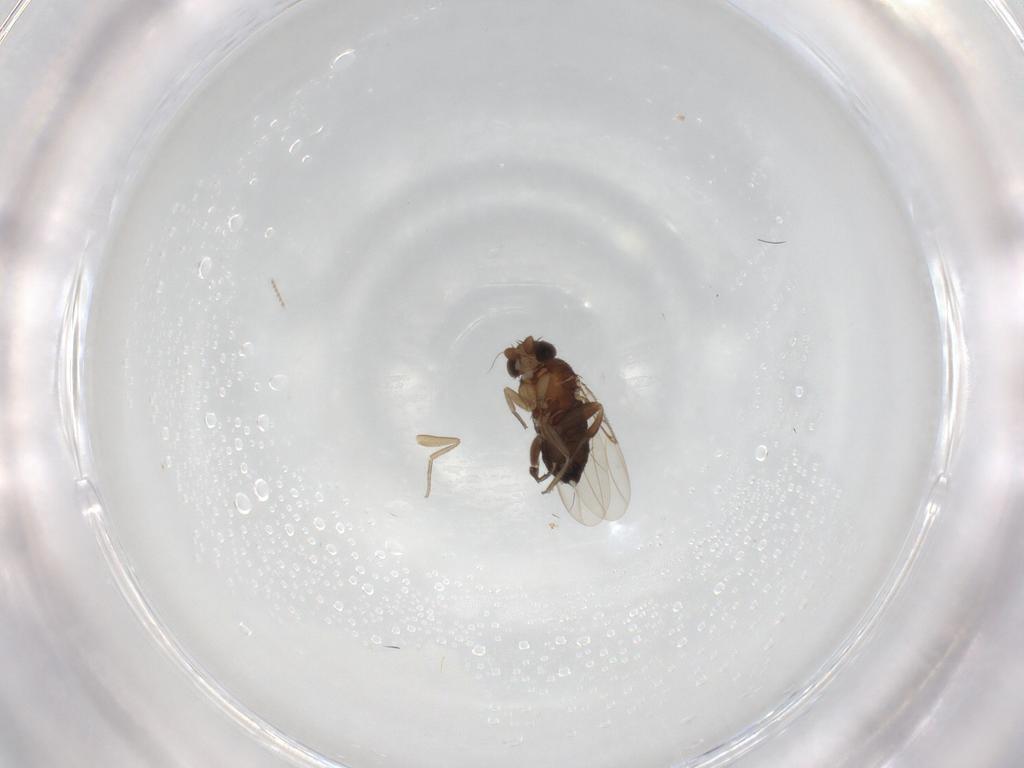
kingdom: Animalia
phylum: Arthropoda
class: Insecta
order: Diptera
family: Phoridae
